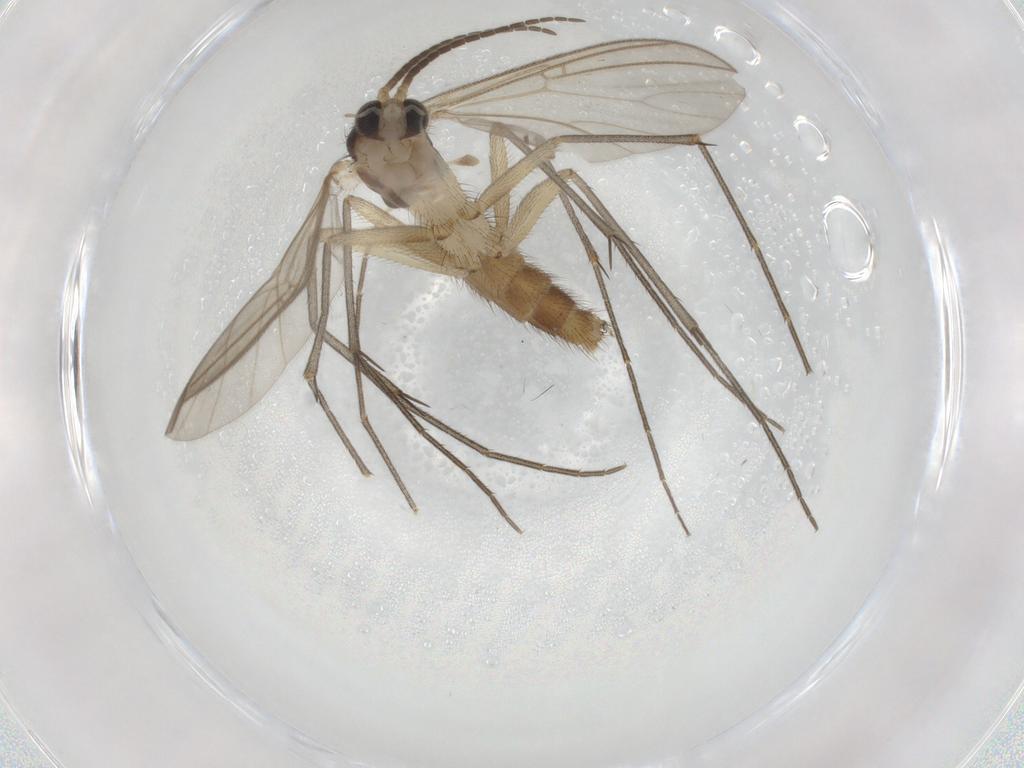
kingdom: Animalia
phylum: Arthropoda
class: Insecta
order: Diptera
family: Mycetophilidae
